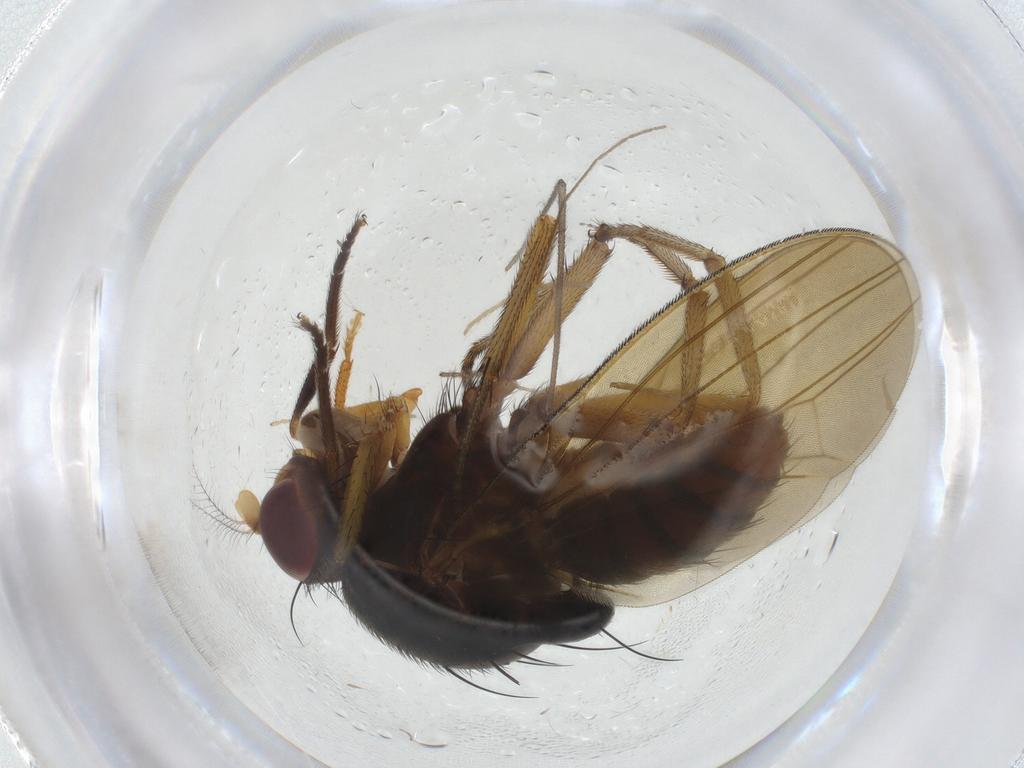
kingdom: Animalia
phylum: Arthropoda
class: Insecta
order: Diptera
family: Limoniidae
